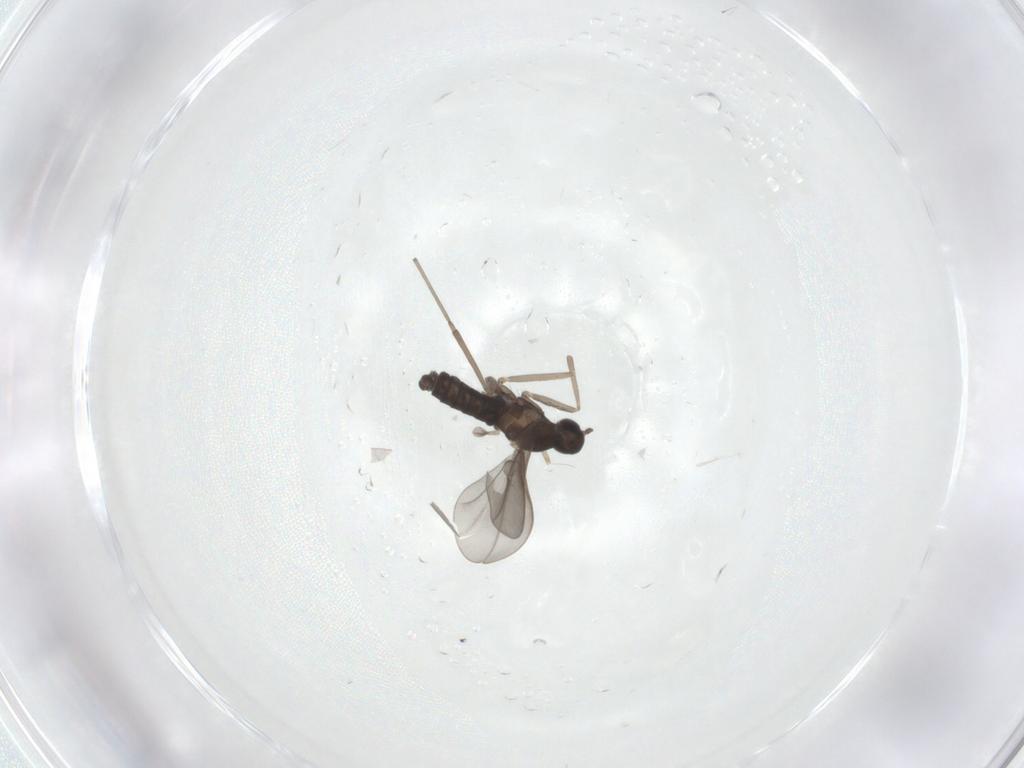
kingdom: Animalia
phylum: Arthropoda
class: Insecta
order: Diptera
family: Cecidomyiidae
